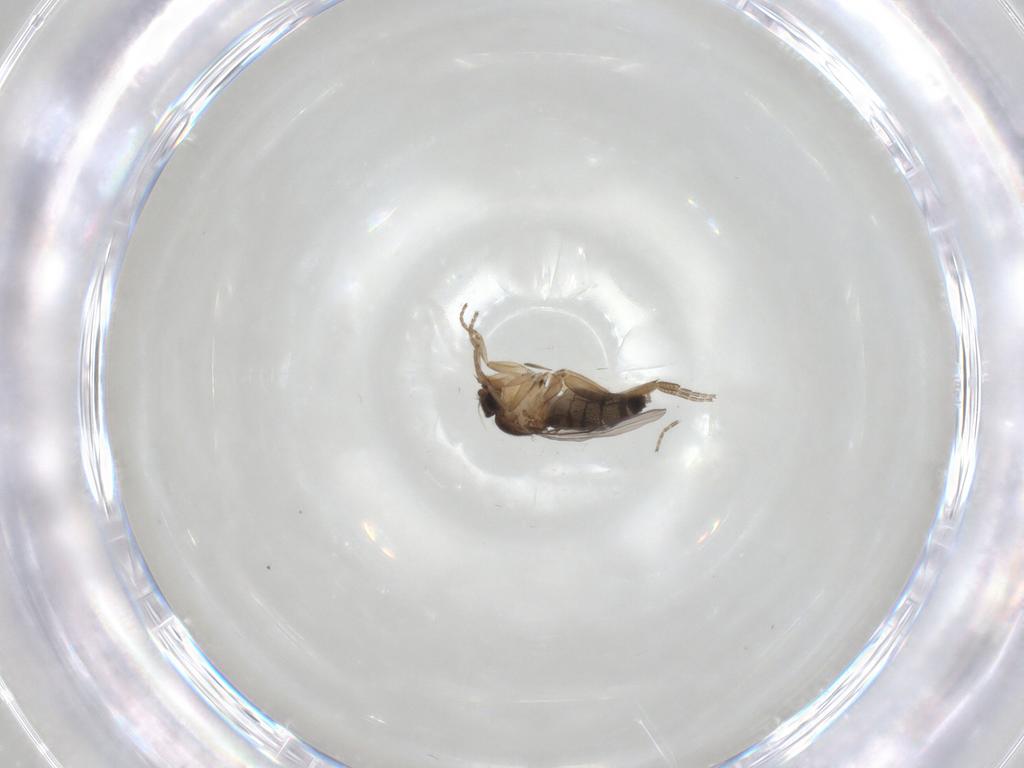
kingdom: Animalia
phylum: Arthropoda
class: Insecta
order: Diptera
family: Phoridae
